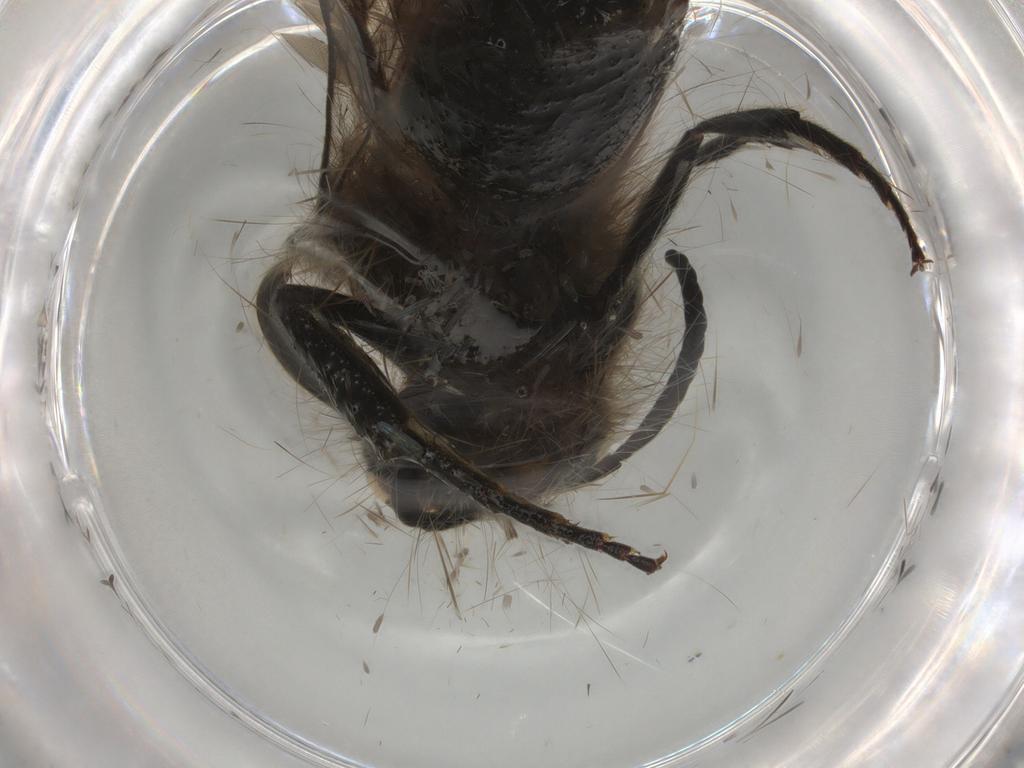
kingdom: Animalia
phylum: Arthropoda
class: Insecta
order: Hymenoptera
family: Mutillidae
